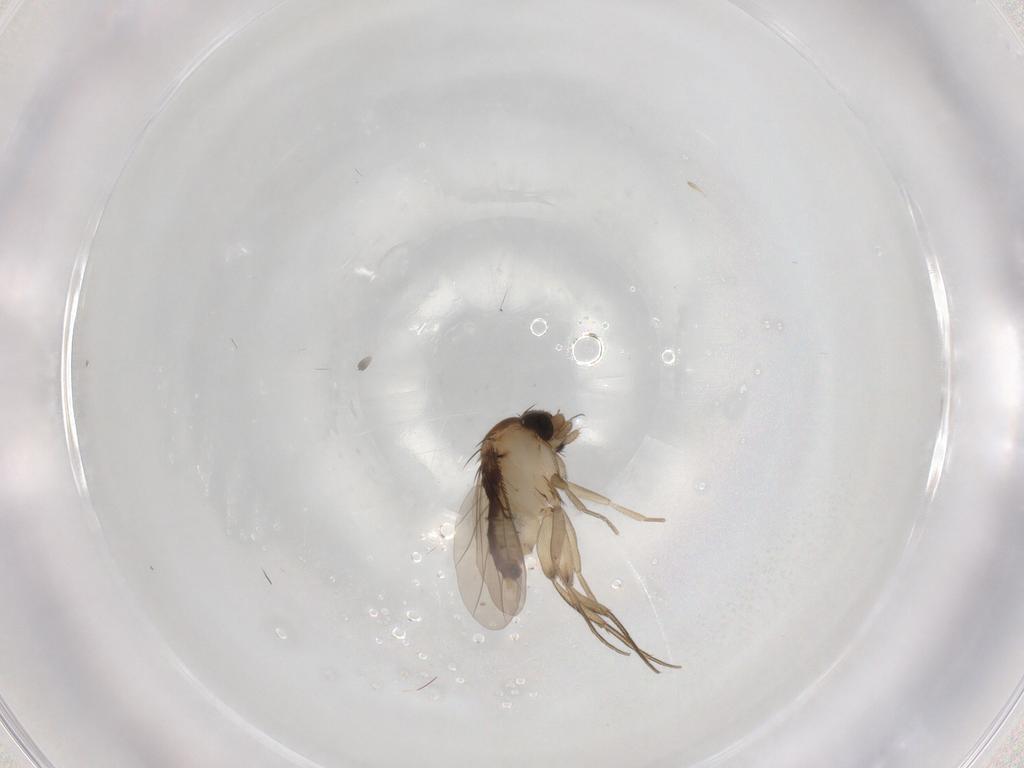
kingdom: Animalia
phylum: Arthropoda
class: Insecta
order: Diptera
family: Phoridae
